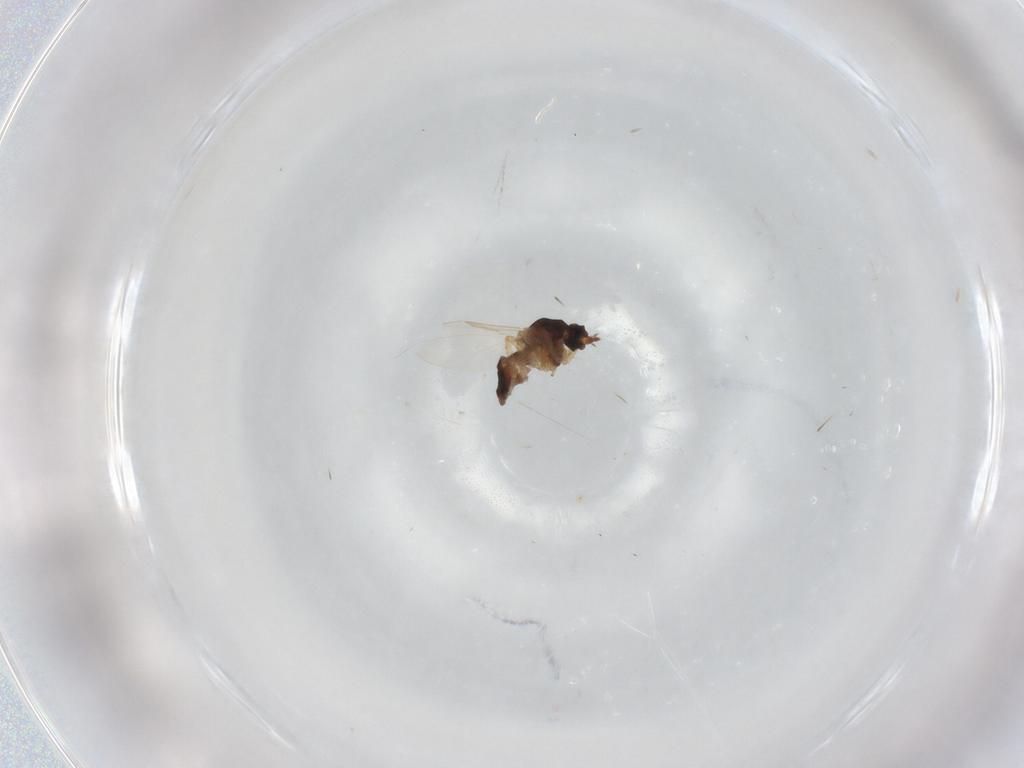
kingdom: Animalia
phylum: Arthropoda
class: Insecta
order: Diptera
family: Ceratopogonidae
